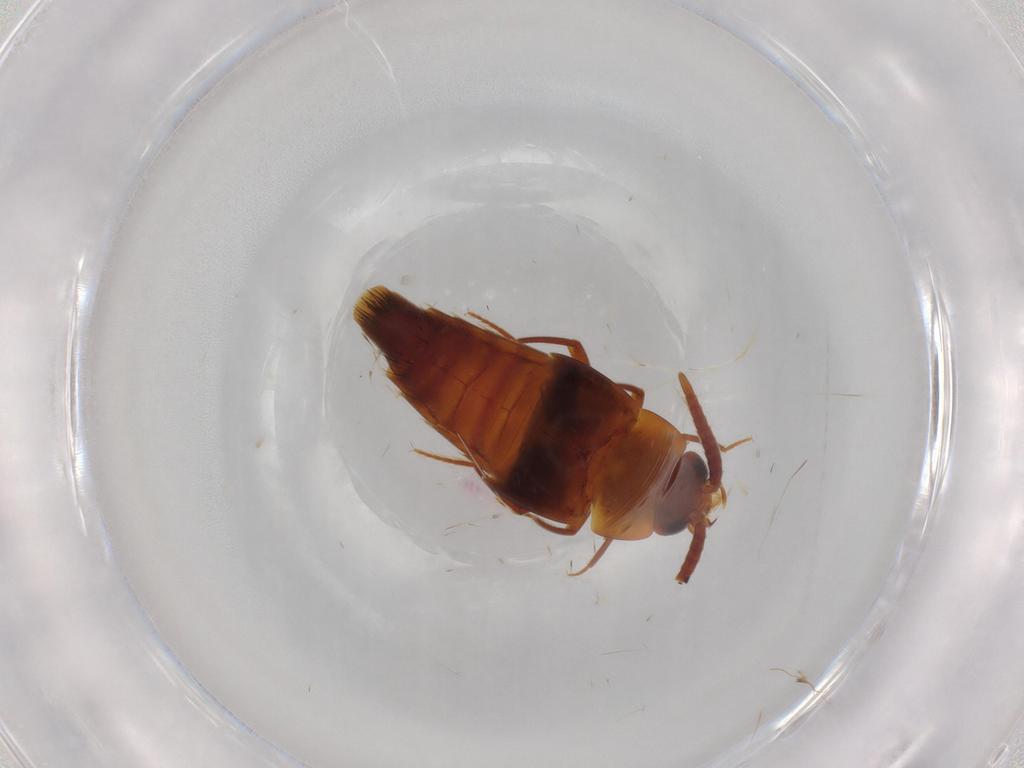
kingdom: Animalia
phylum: Arthropoda
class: Insecta
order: Coleoptera
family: Staphylinidae
